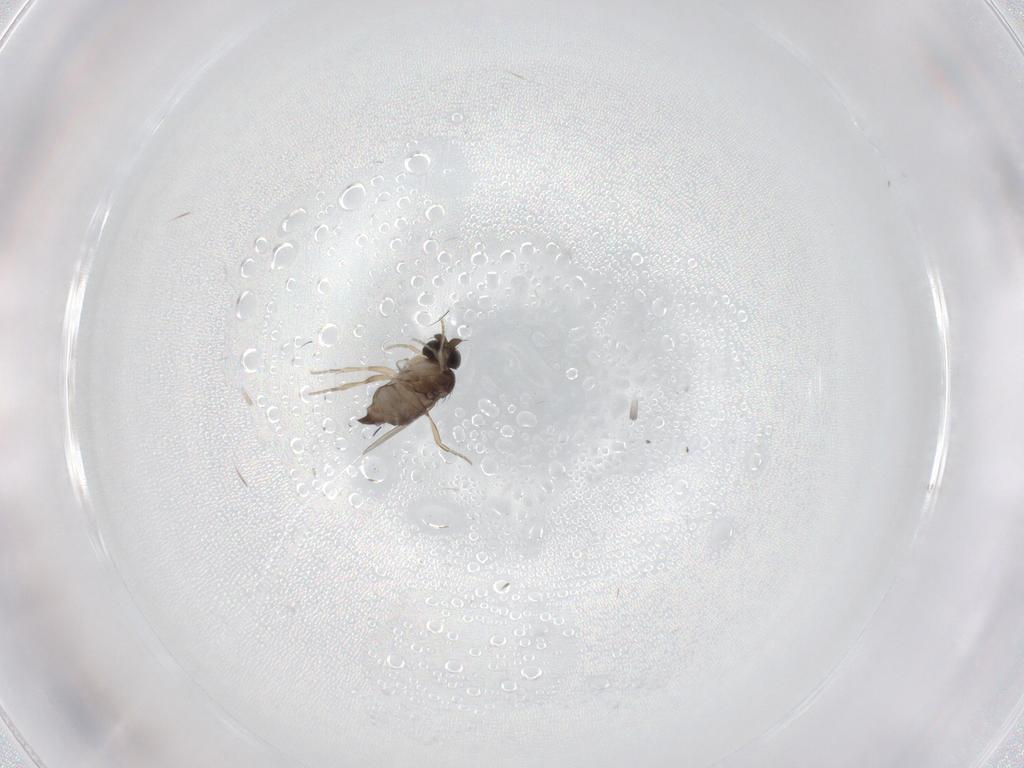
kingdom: Animalia
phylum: Arthropoda
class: Insecta
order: Diptera
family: Phoridae
